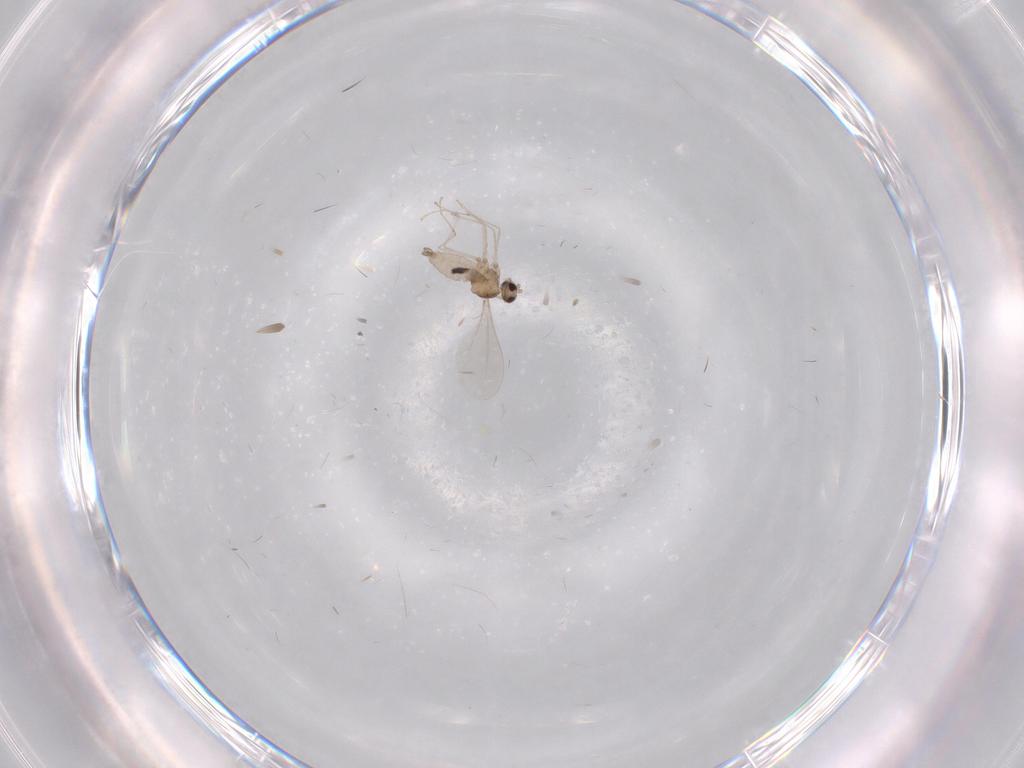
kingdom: Animalia
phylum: Arthropoda
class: Insecta
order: Diptera
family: Cecidomyiidae
